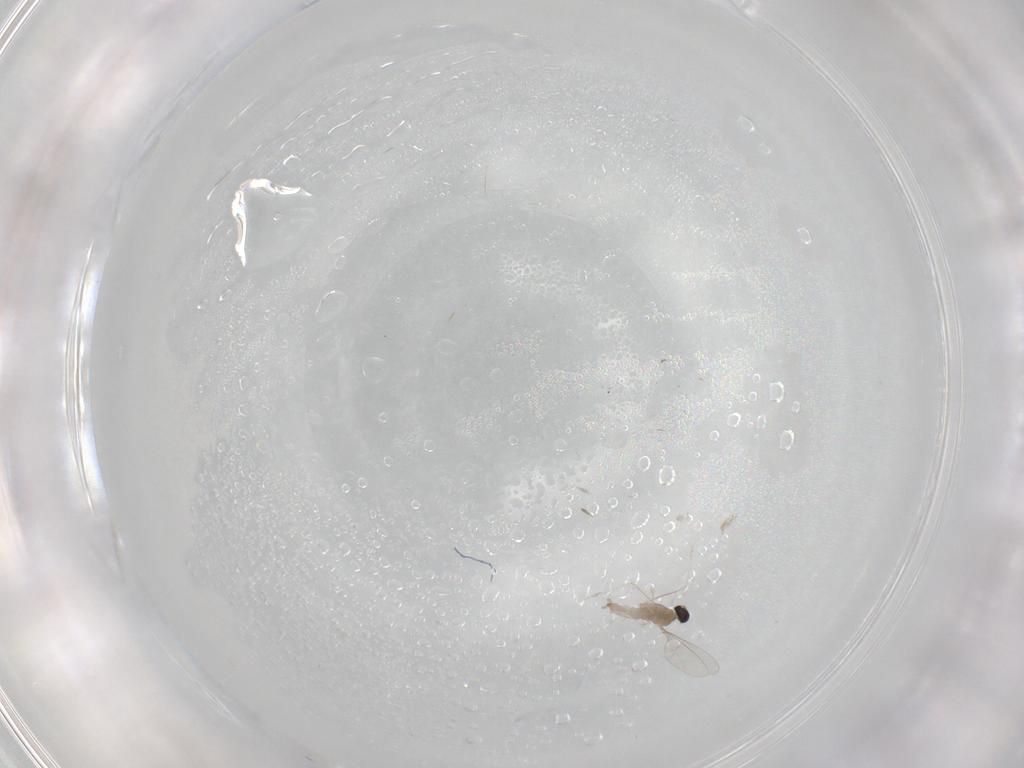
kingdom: Animalia
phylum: Arthropoda
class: Insecta
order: Diptera
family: Cecidomyiidae
